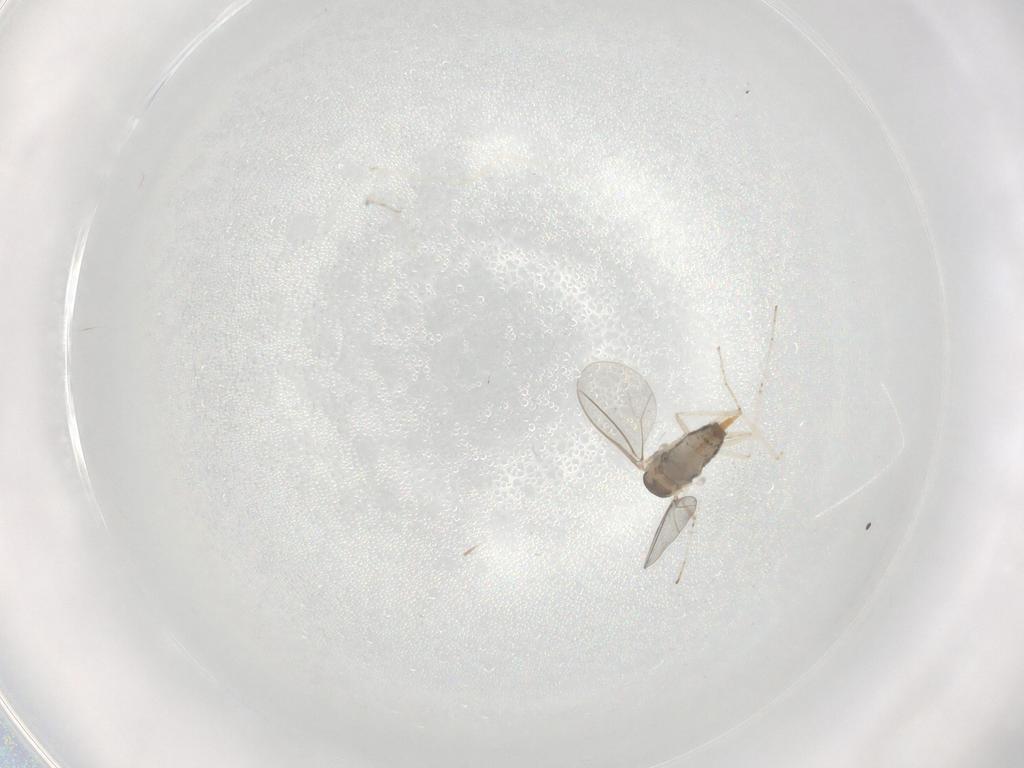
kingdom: Animalia
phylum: Arthropoda
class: Insecta
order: Diptera
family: Cecidomyiidae
